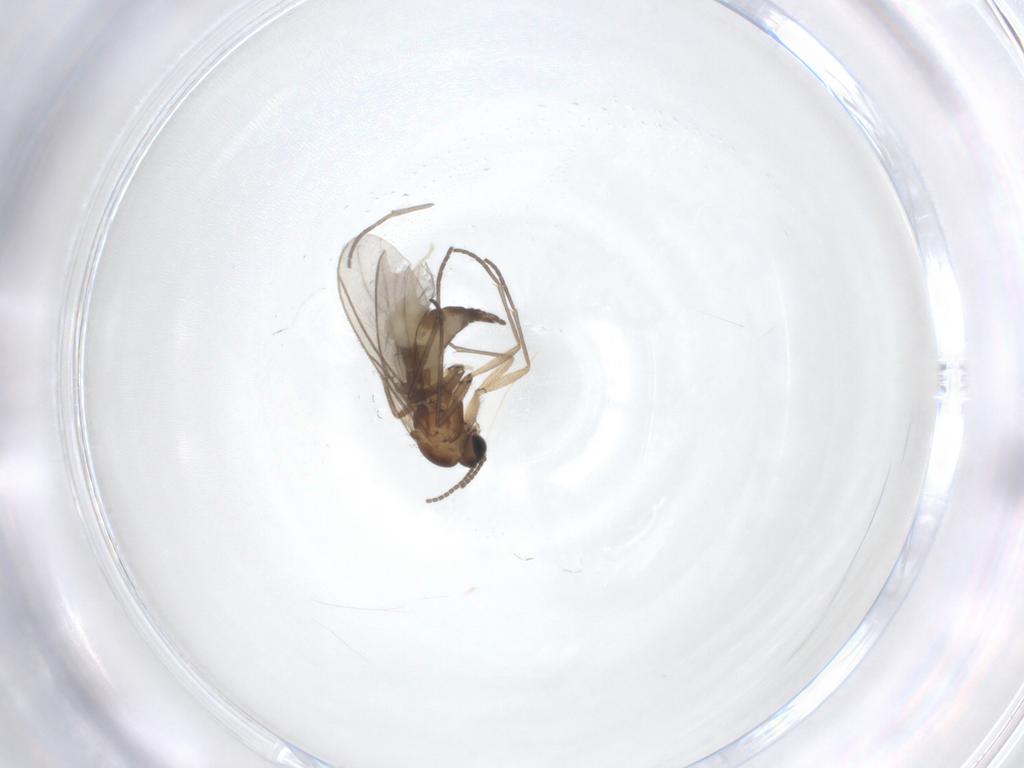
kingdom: Animalia
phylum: Arthropoda
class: Insecta
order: Diptera
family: Sciaridae
